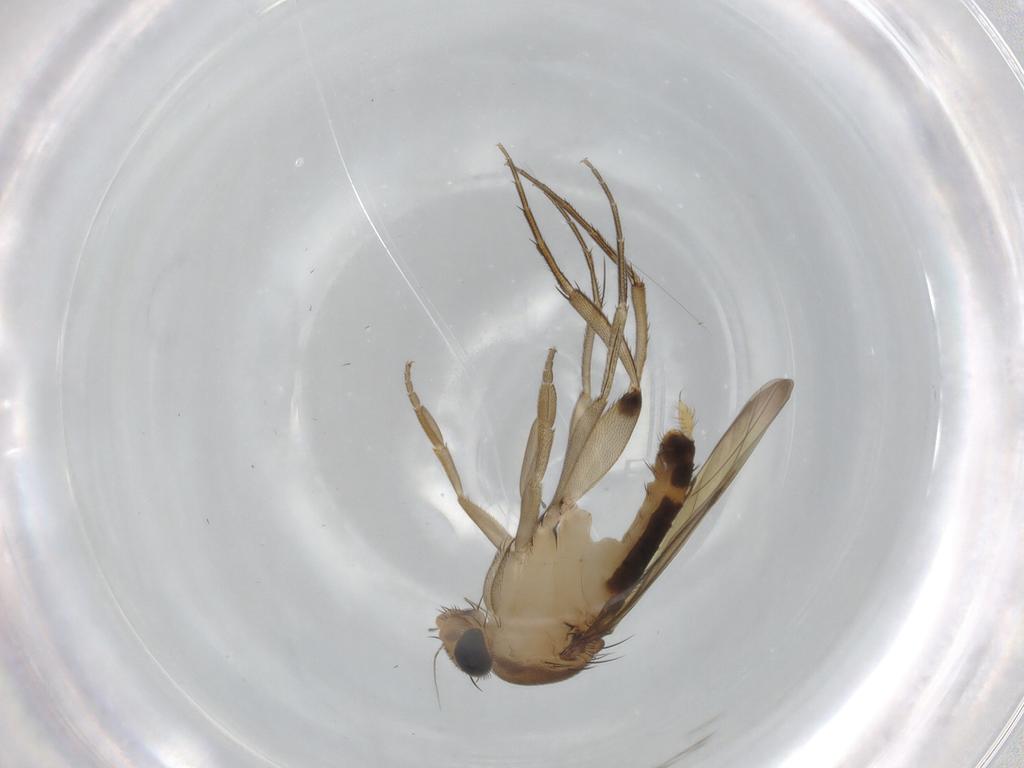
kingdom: Animalia
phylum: Arthropoda
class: Insecta
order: Diptera
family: Phoridae
